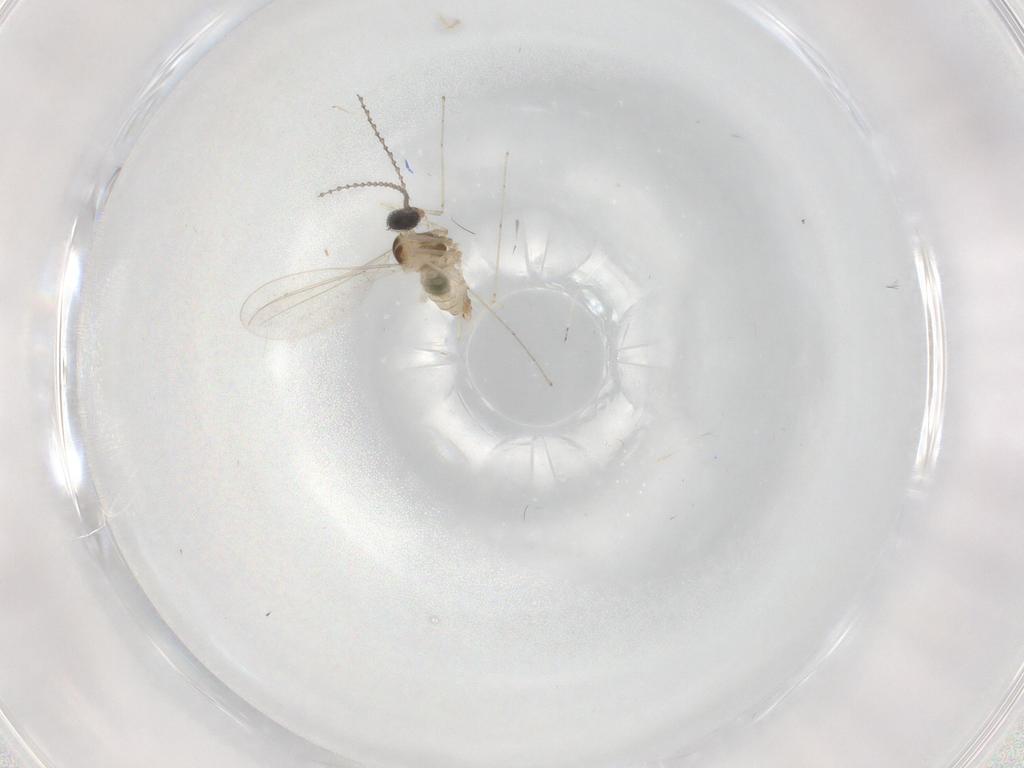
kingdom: Animalia
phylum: Arthropoda
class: Insecta
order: Diptera
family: Cecidomyiidae
